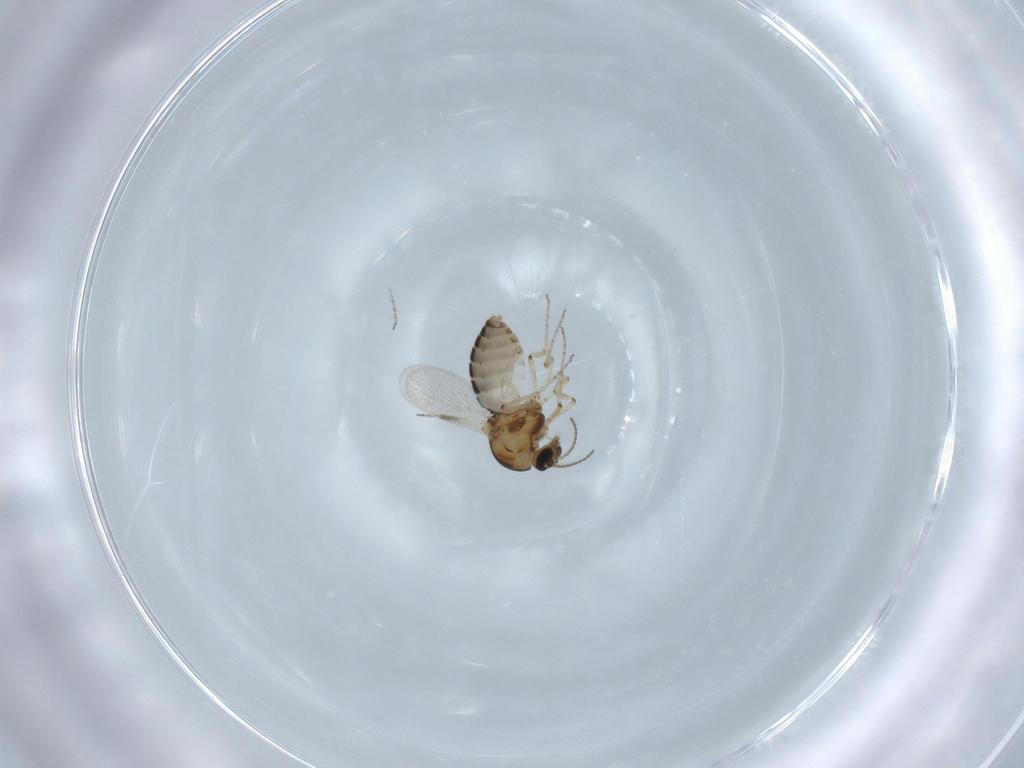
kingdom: Animalia
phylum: Arthropoda
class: Insecta
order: Diptera
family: Ceratopogonidae
